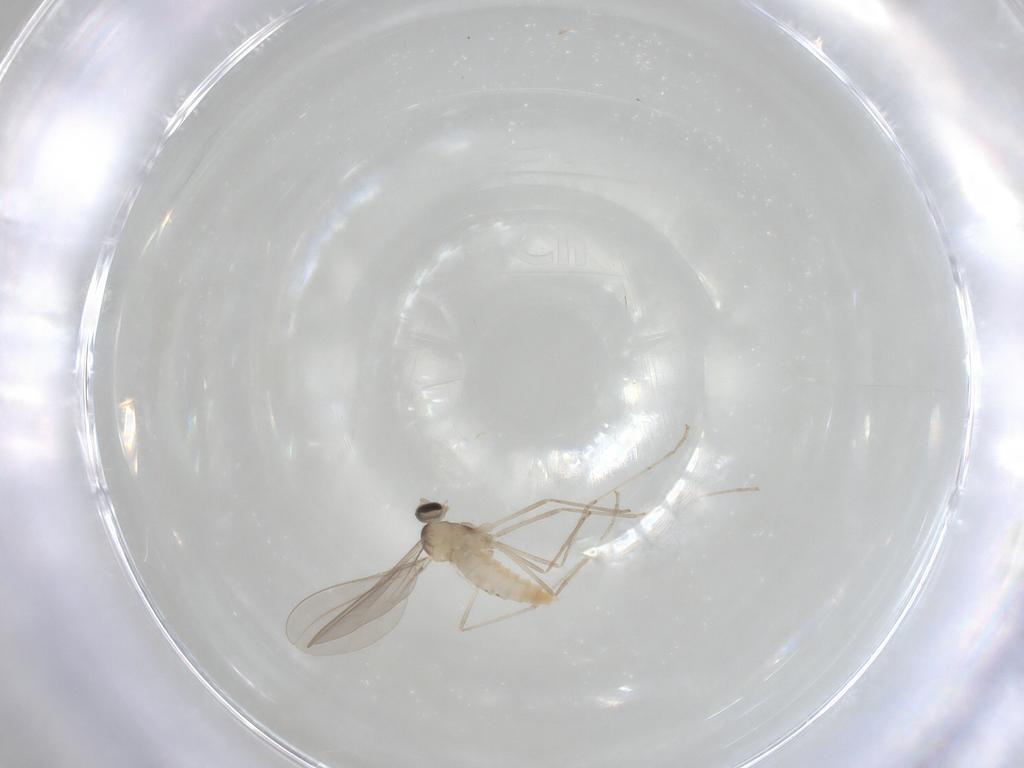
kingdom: Animalia
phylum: Arthropoda
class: Insecta
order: Diptera
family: Cecidomyiidae
